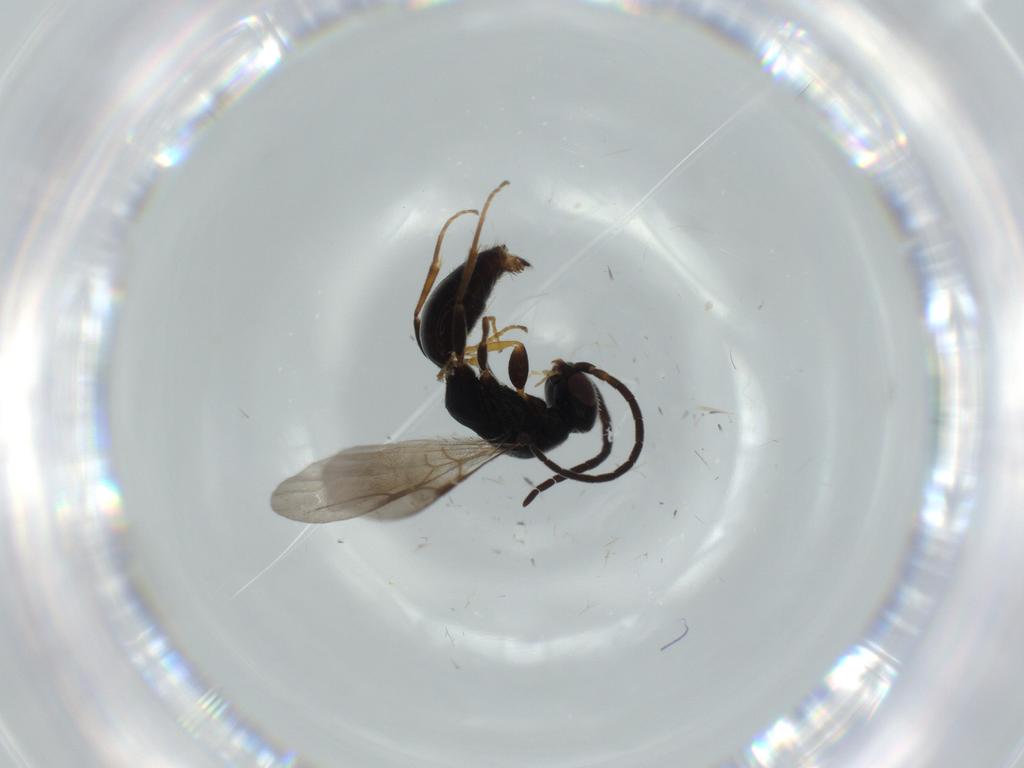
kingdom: Animalia
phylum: Arthropoda
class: Insecta
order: Hymenoptera
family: Bethylidae
